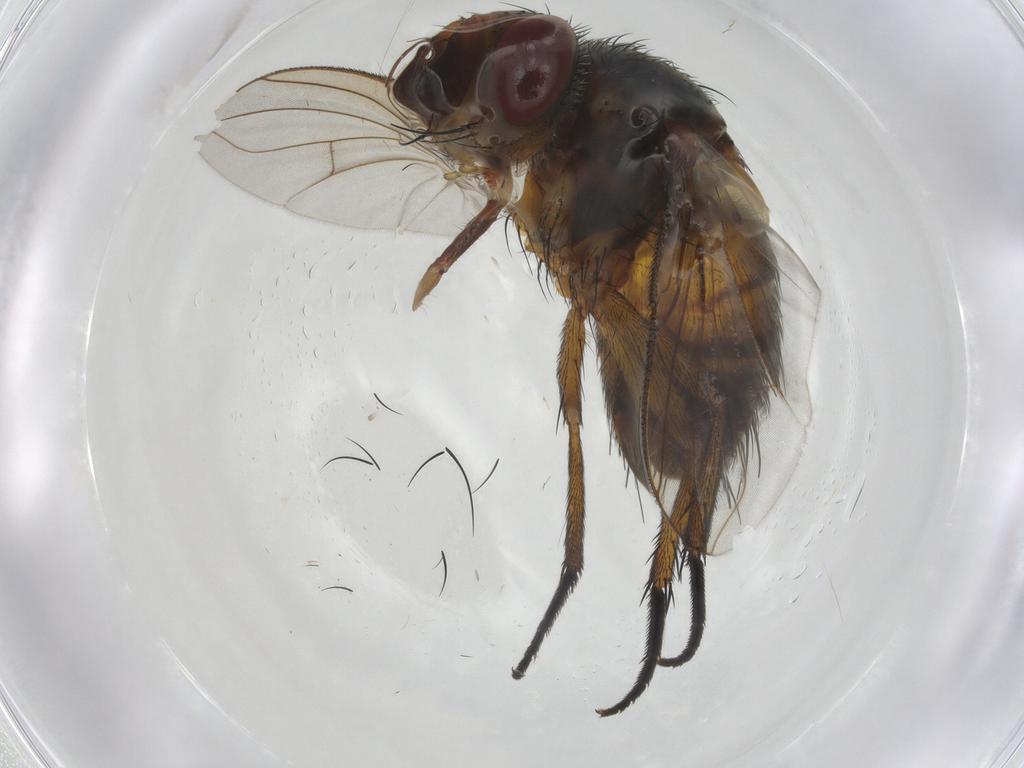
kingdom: Animalia
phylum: Arthropoda
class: Insecta
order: Diptera
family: Tachinidae
